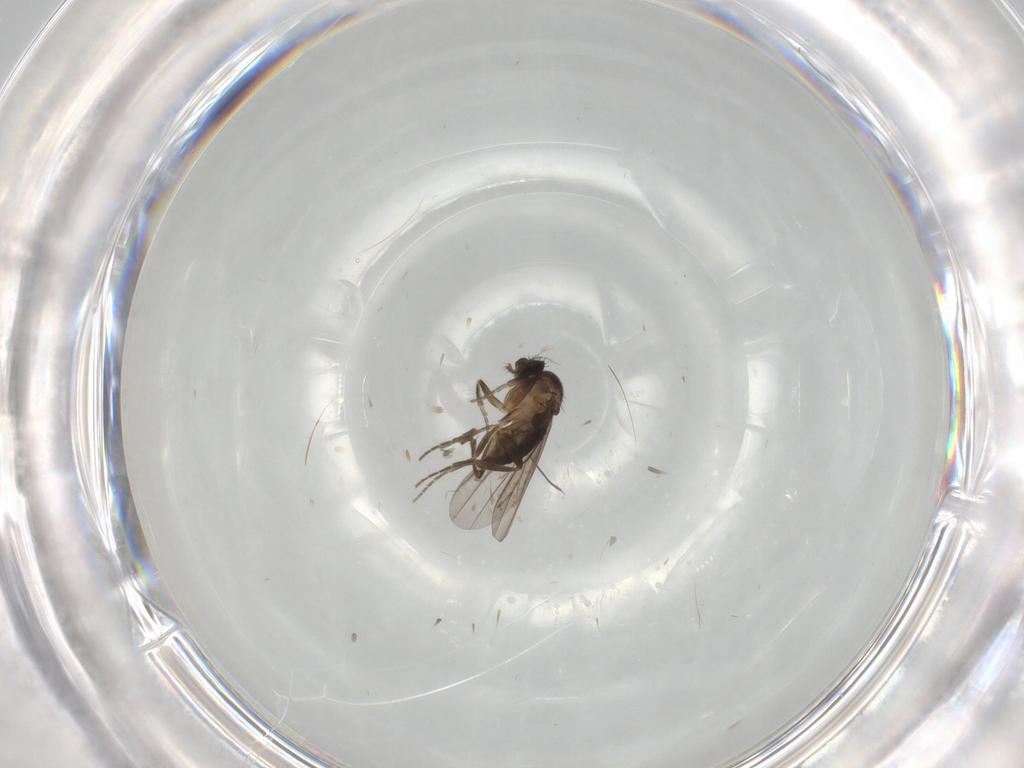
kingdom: Animalia
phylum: Arthropoda
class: Insecta
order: Diptera
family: Cecidomyiidae
